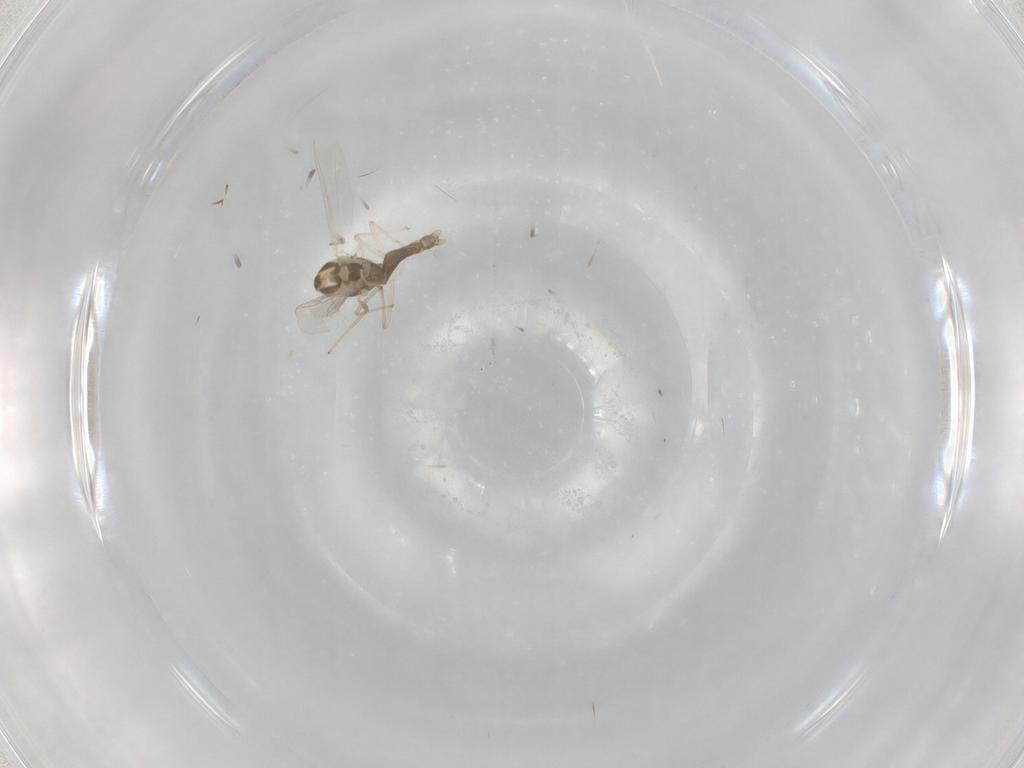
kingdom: Animalia
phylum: Arthropoda
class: Insecta
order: Diptera
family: Chironomidae
